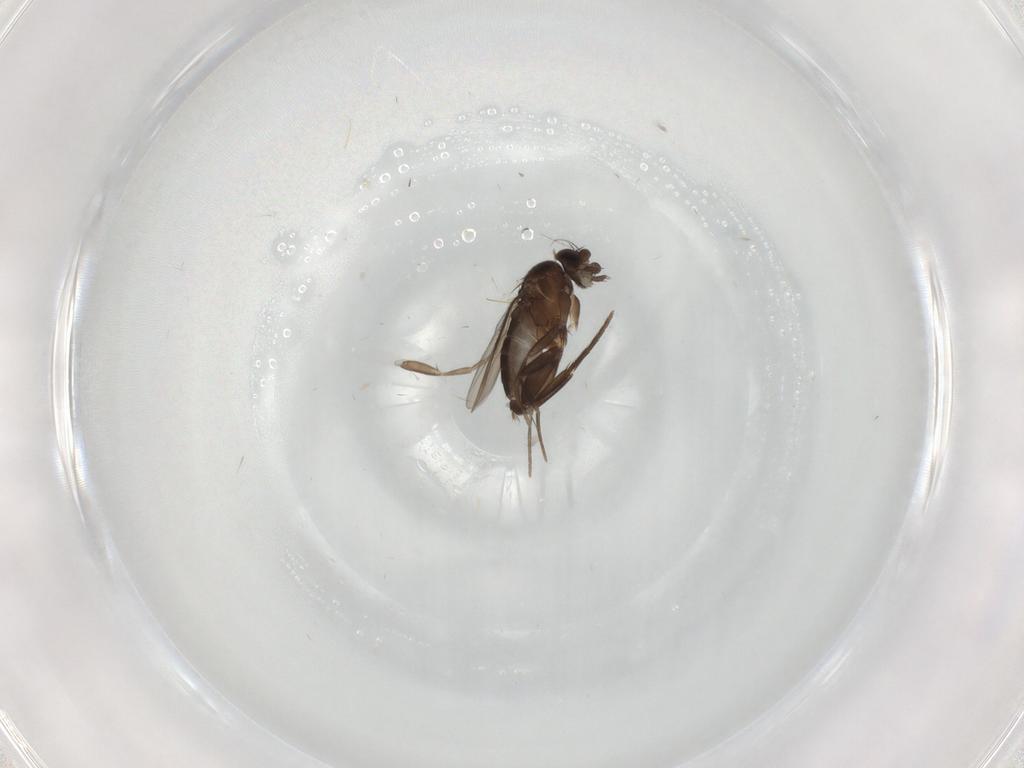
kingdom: Animalia
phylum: Arthropoda
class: Insecta
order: Diptera
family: Phoridae
